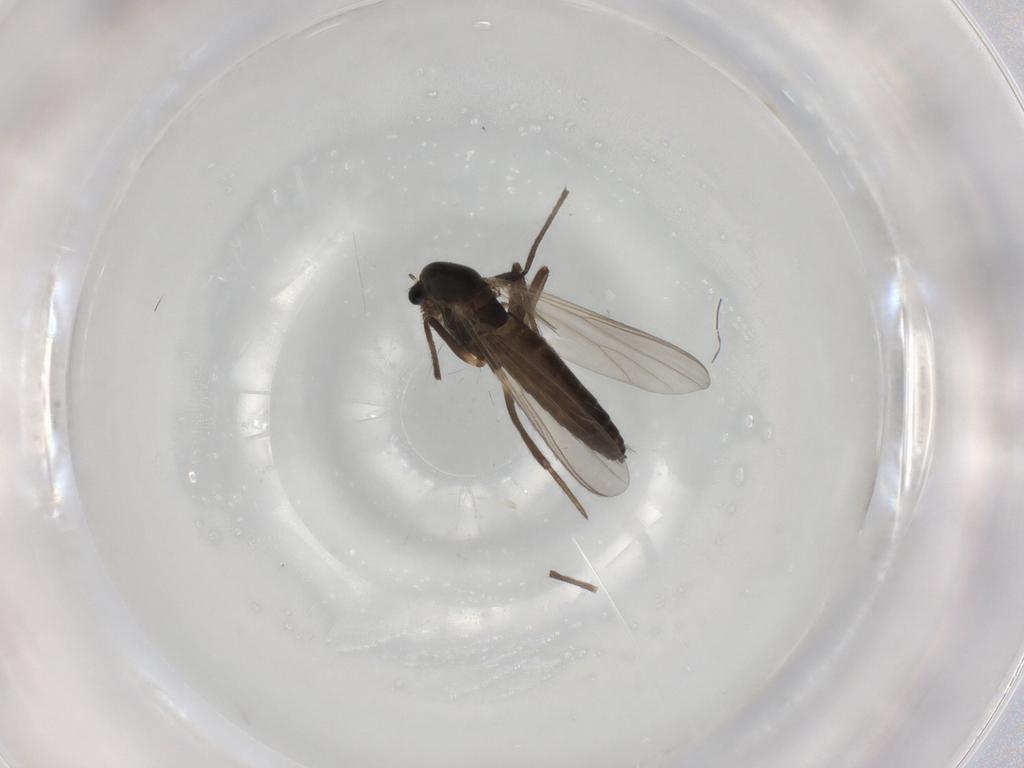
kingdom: Animalia
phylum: Arthropoda
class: Insecta
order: Diptera
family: Chironomidae
